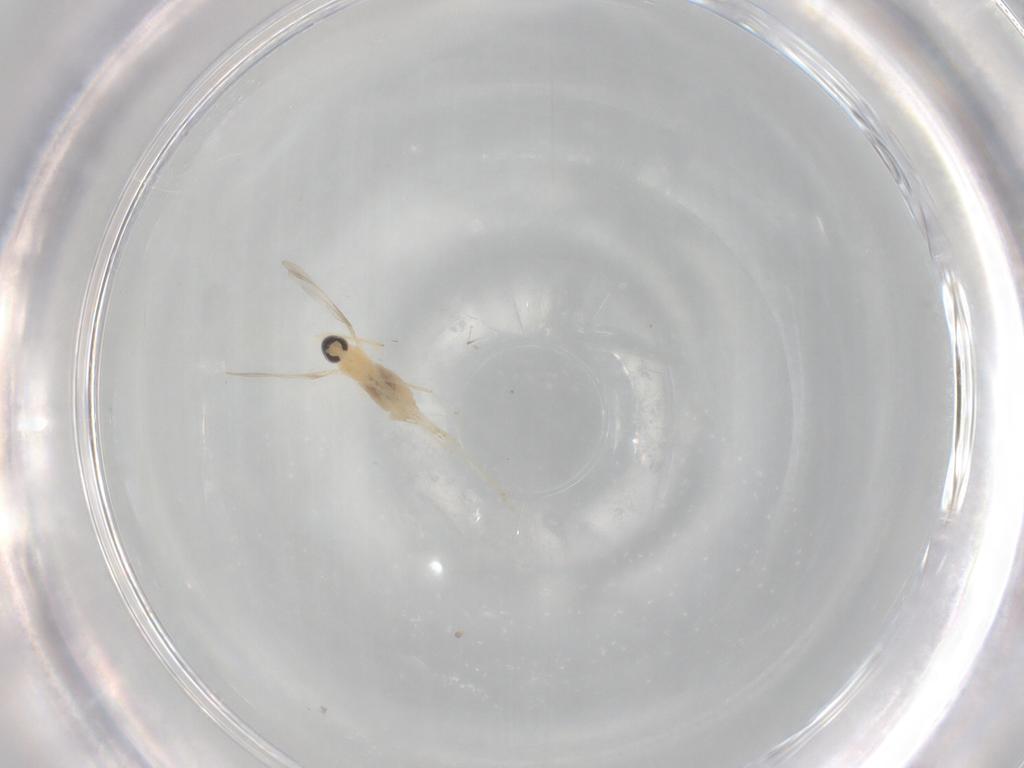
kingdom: Animalia
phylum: Arthropoda
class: Insecta
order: Diptera
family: Cecidomyiidae
